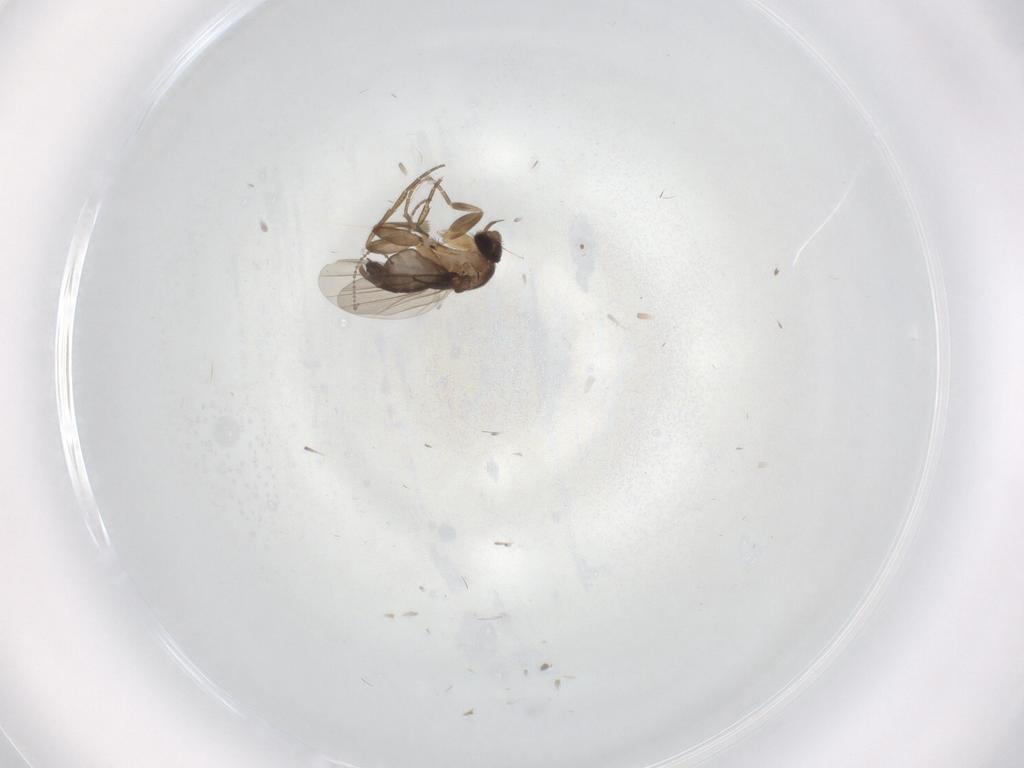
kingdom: Animalia
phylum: Arthropoda
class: Insecta
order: Diptera
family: Phoridae
